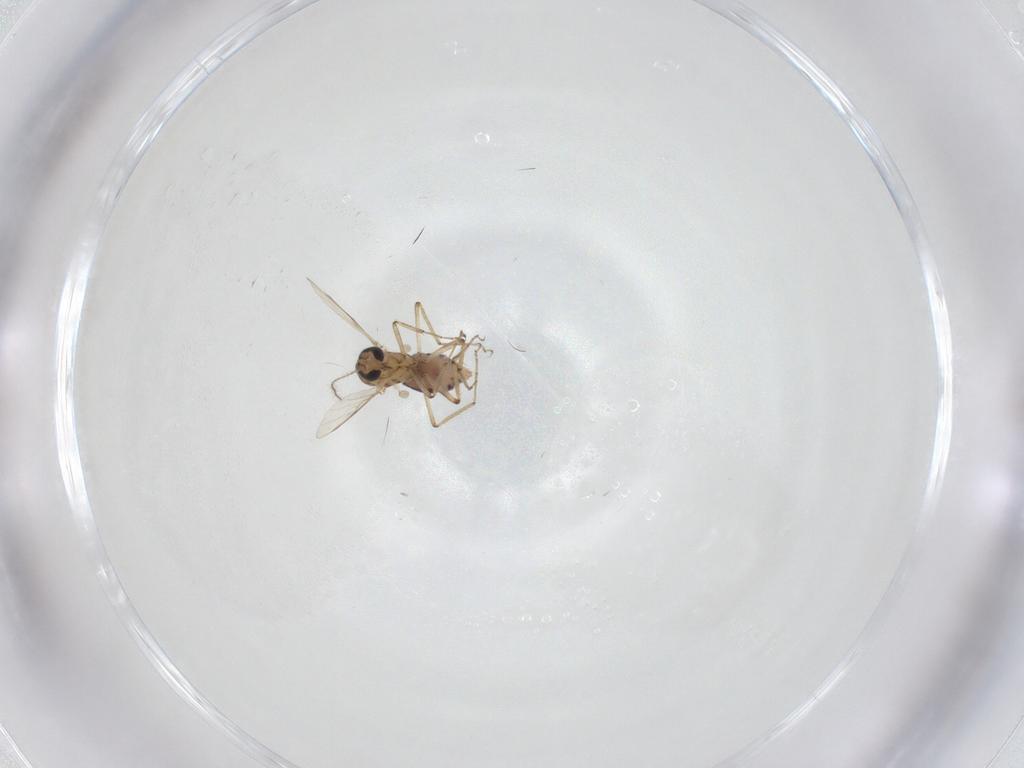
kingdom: Animalia
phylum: Arthropoda
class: Insecta
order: Diptera
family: Ceratopogonidae
